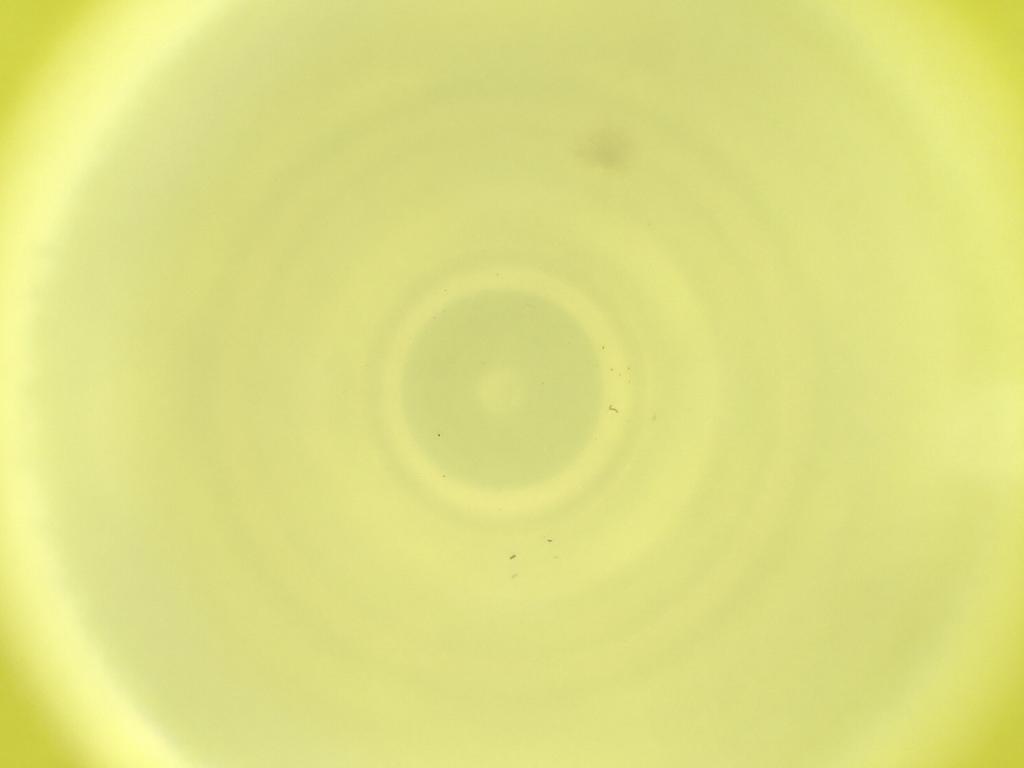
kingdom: Animalia
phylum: Arthropoda
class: Insecta
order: Diptera
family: Cecidomyiidae
